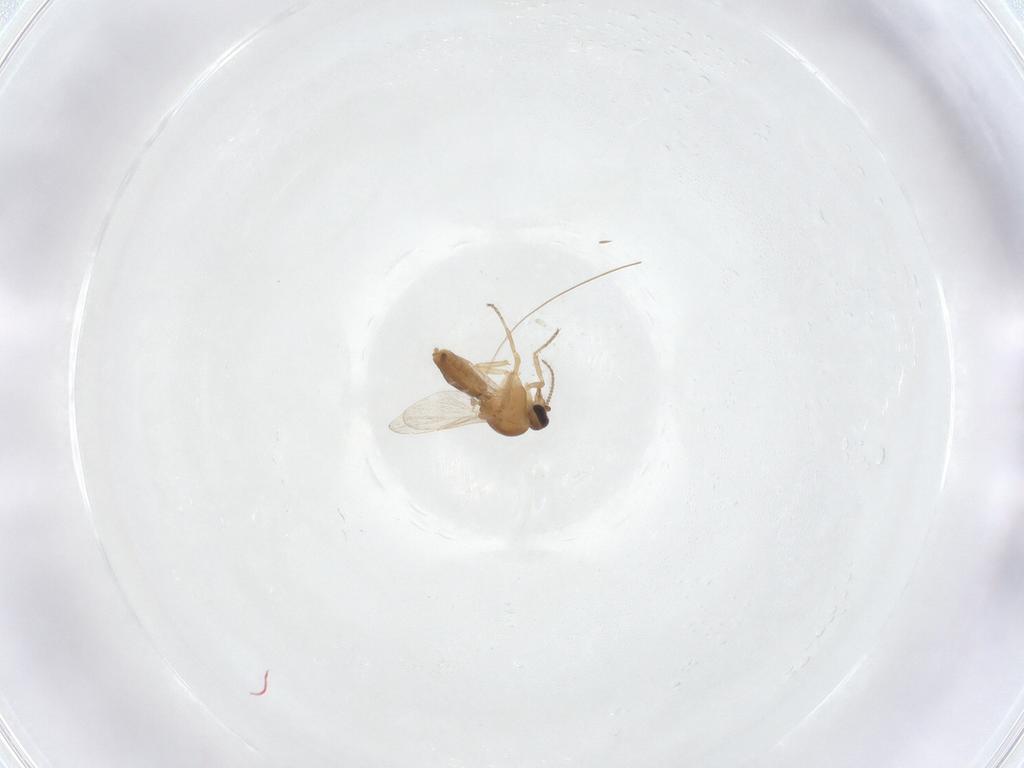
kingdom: Animalia
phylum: Arthropoda
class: Insecta
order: Diptera
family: Ceratopogonidae
